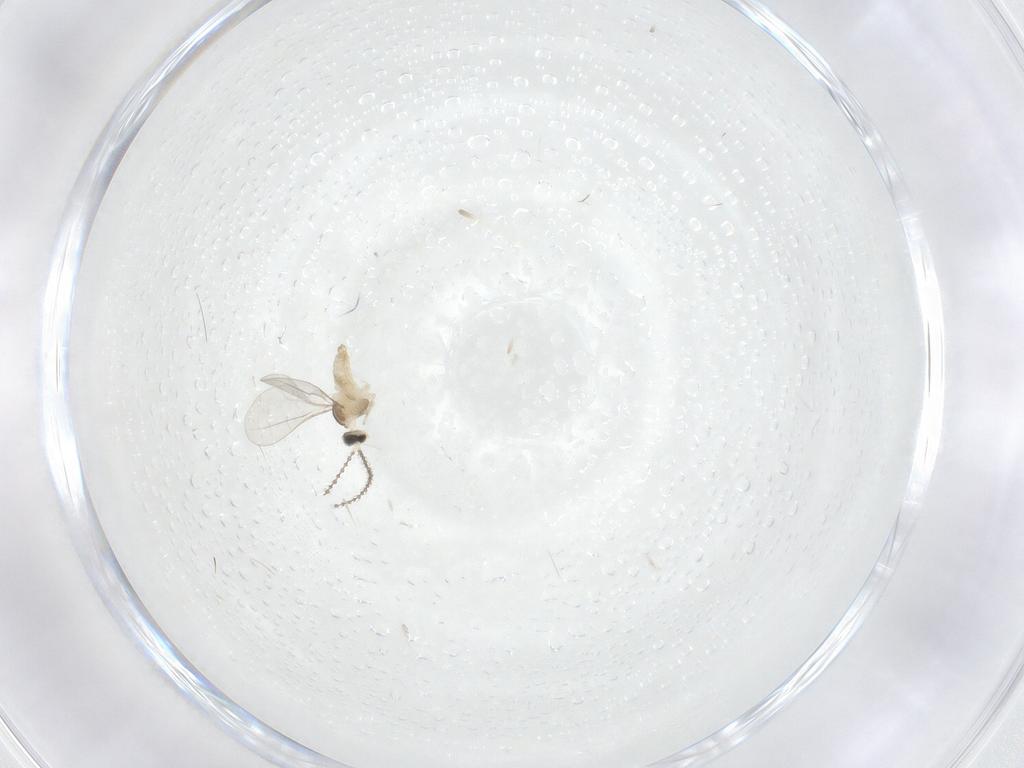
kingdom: Animalia
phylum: Arthropoda
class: Insecta
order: Diptera
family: Cecidomyiidae
